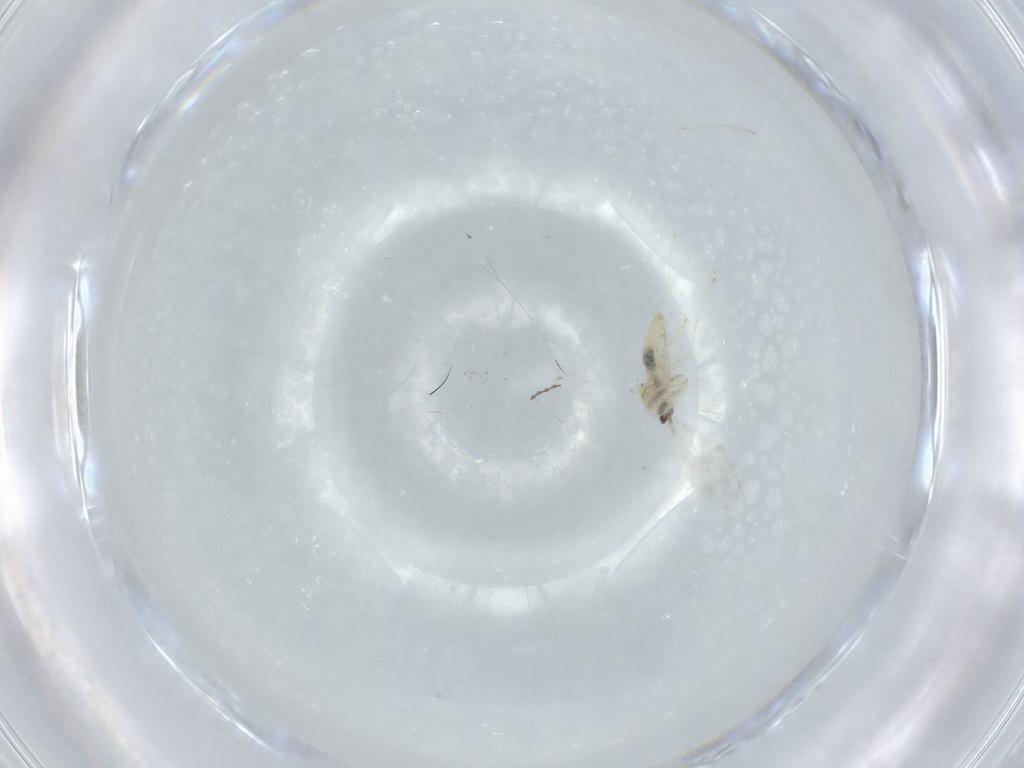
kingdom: Animalia
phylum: Arthropoda
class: Insecta
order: Diptera
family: Cecidomyiidae
